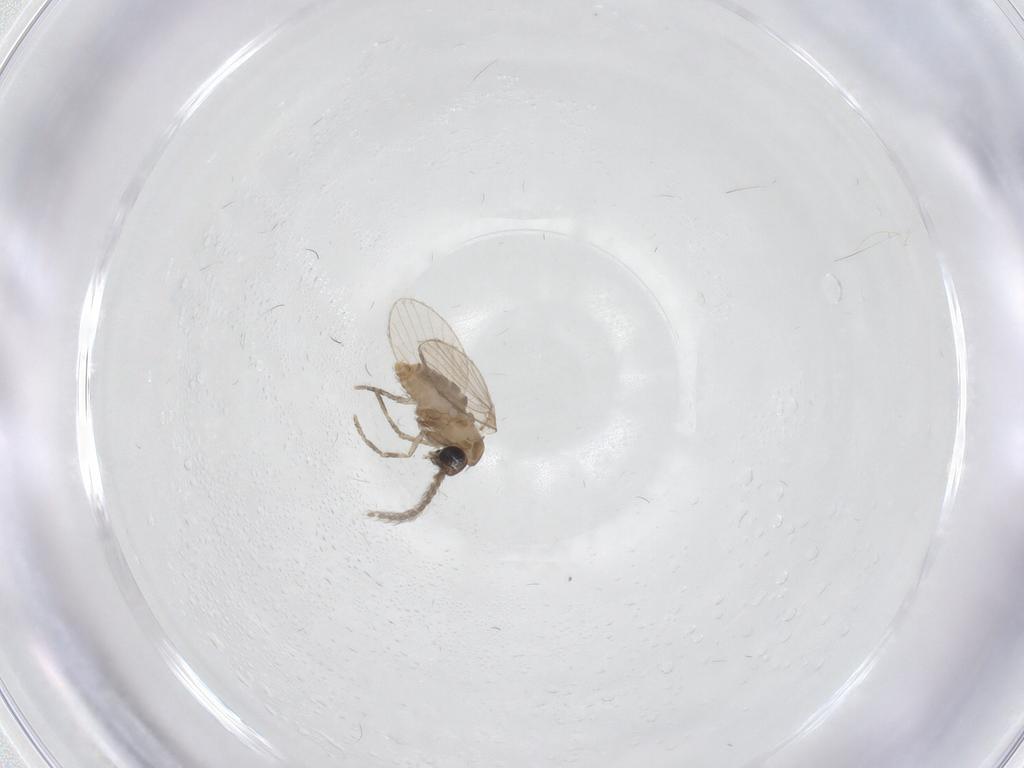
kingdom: Animalia
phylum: Arthropoda
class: Insecta
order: Diptera
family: Psychodidae
